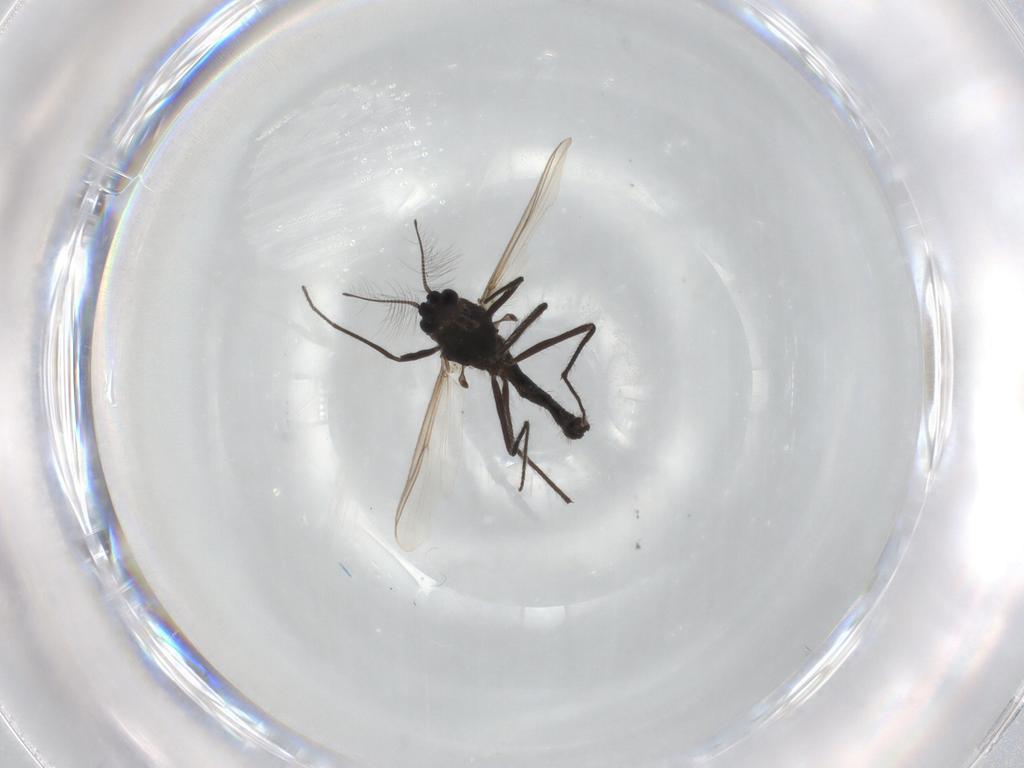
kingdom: Animalia
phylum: Arthropoda
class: Insecta
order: Diptera
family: Chironomidae
